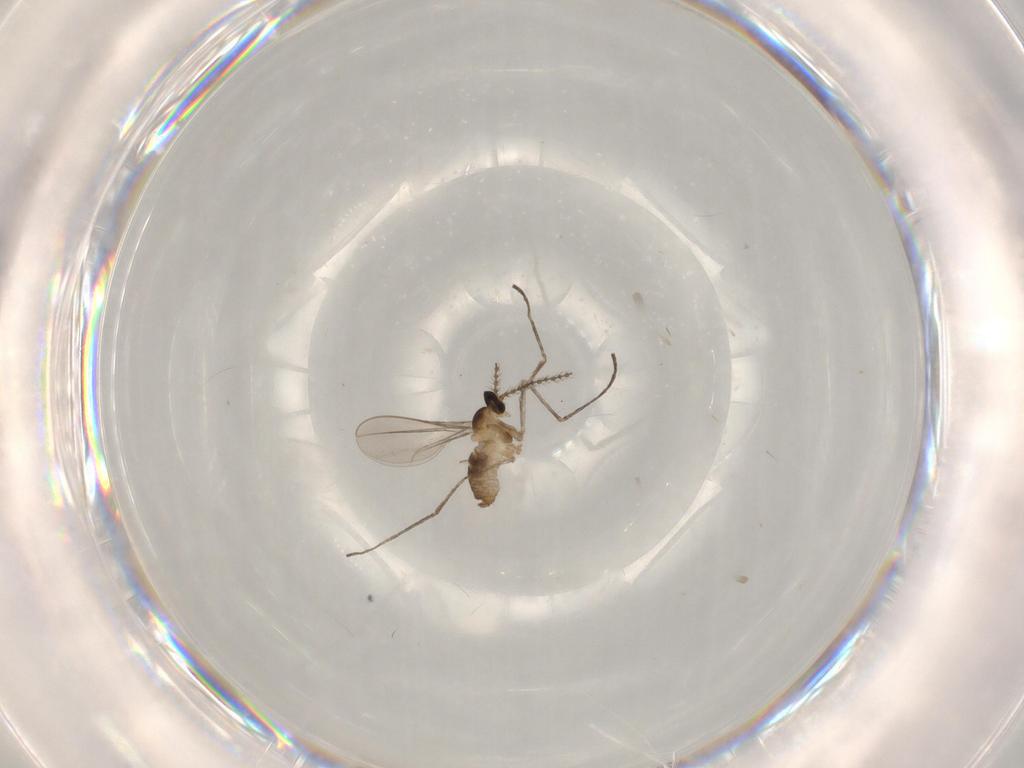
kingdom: Animalia
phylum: Arthropoda
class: Insecta
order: Diptera
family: Cecidomyiidae
